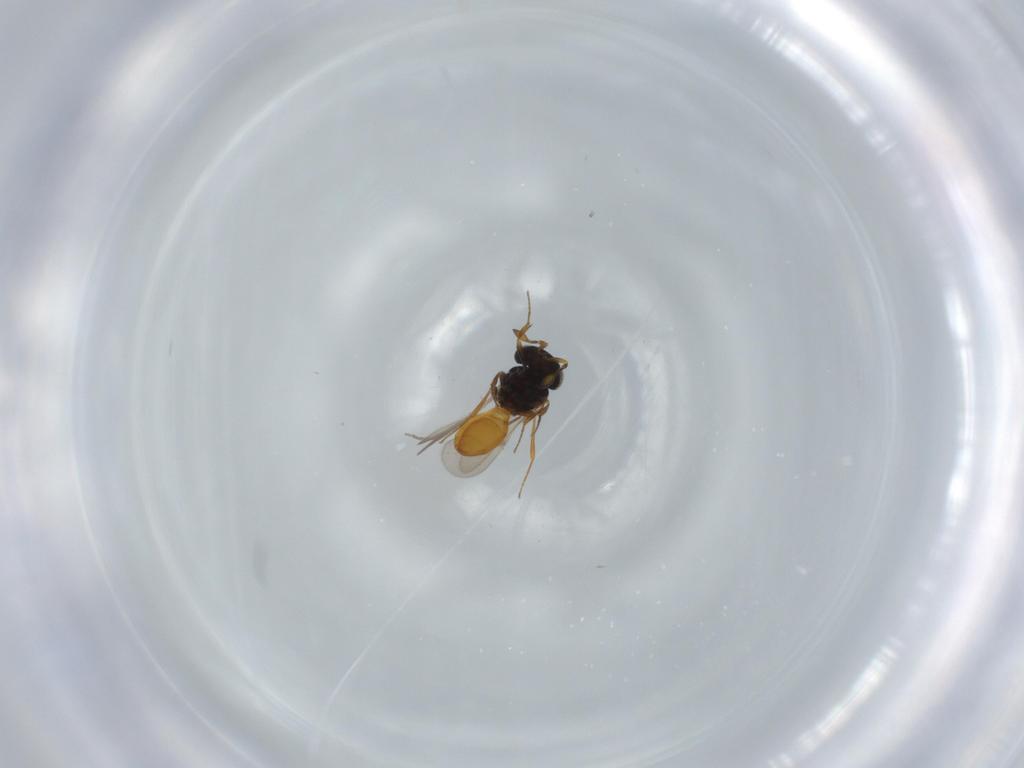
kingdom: Animalia
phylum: Arthropoda
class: Insecta
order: Hymenoptera
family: Scelionidae
